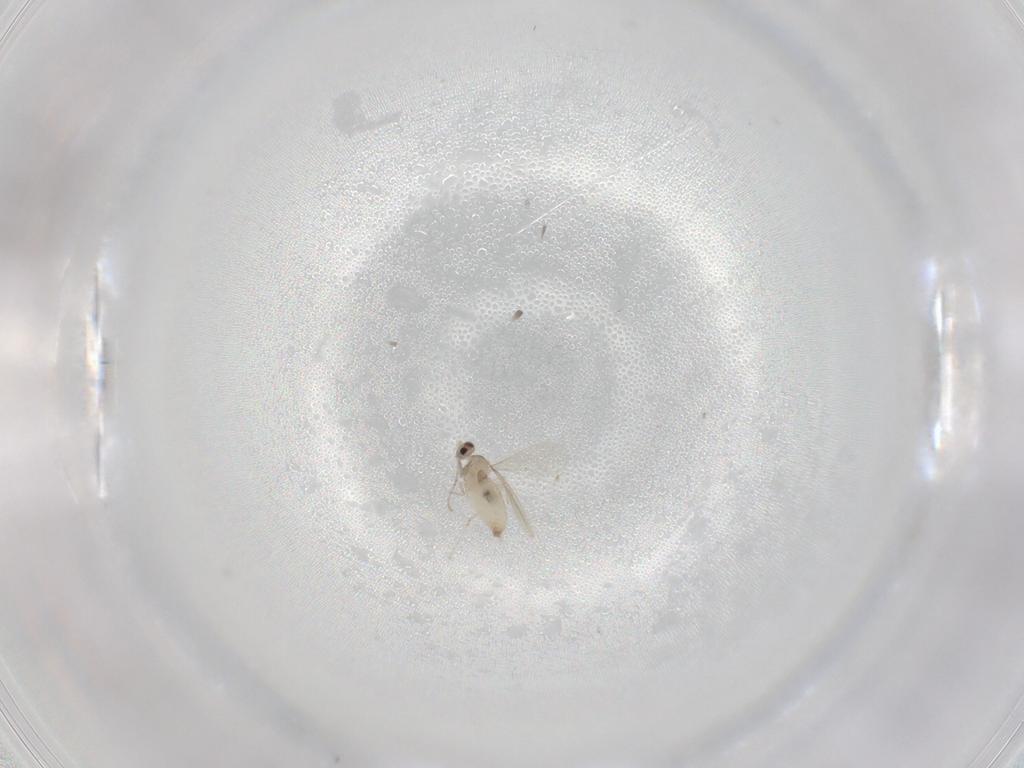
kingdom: Animalia
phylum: Arthropoda
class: Insecta
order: Diptera
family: Cecidomyiidae
